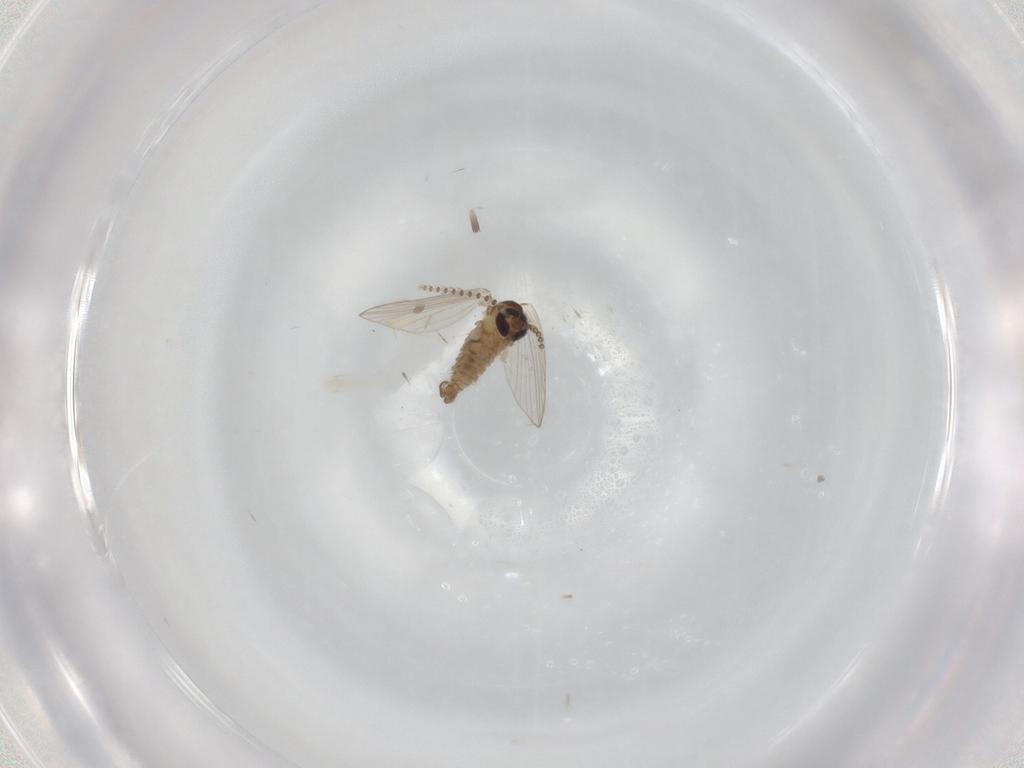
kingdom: Animalia
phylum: Arthropoda
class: Insecta
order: Diptera
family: Psychodidae
